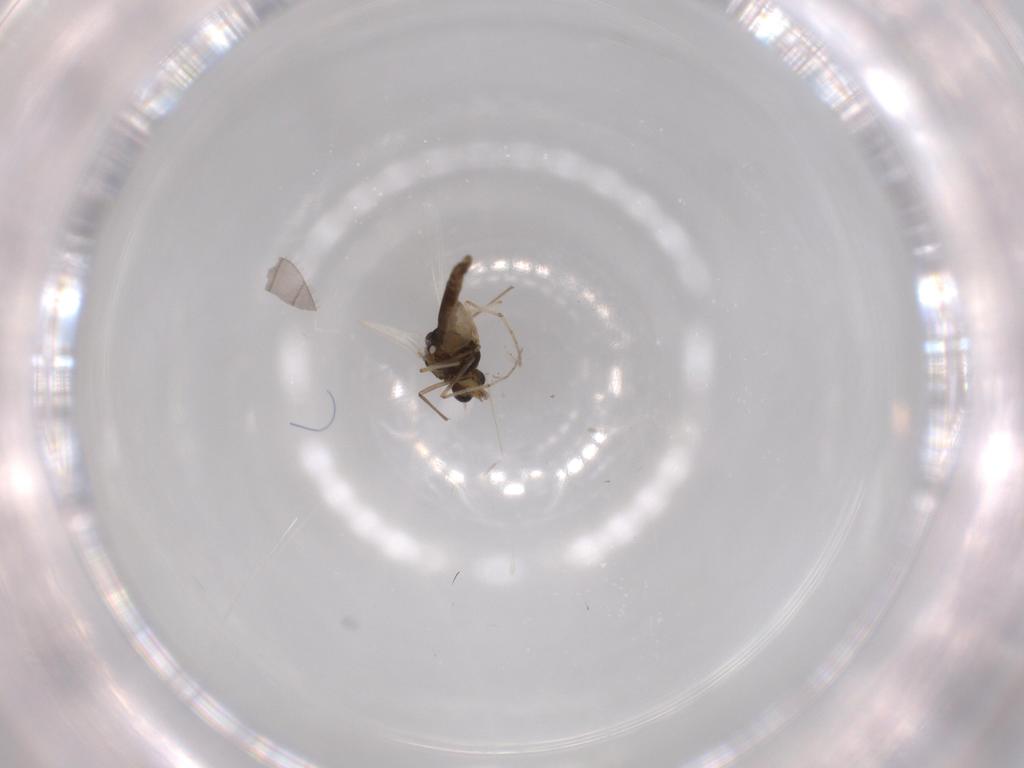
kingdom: Animalia
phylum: Arthropoda
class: Insecta
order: Diptera
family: Chironomidae
